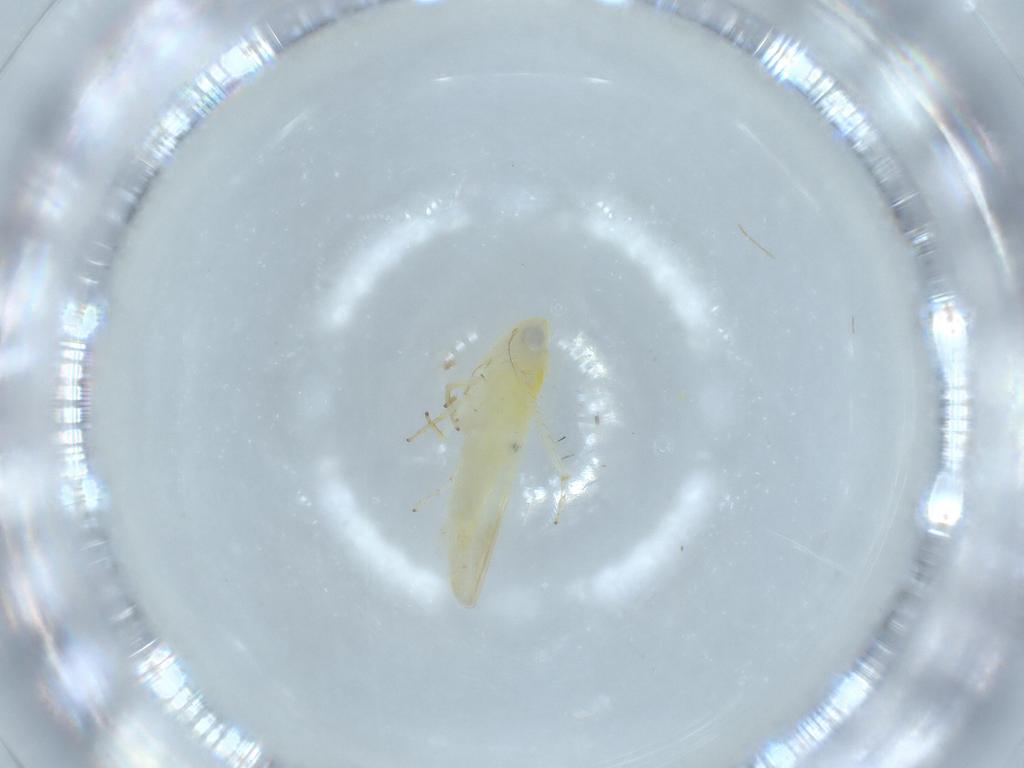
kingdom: Animalia
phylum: Arthropoda
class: Insecta
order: Hemiptera
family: Cicadellidae
